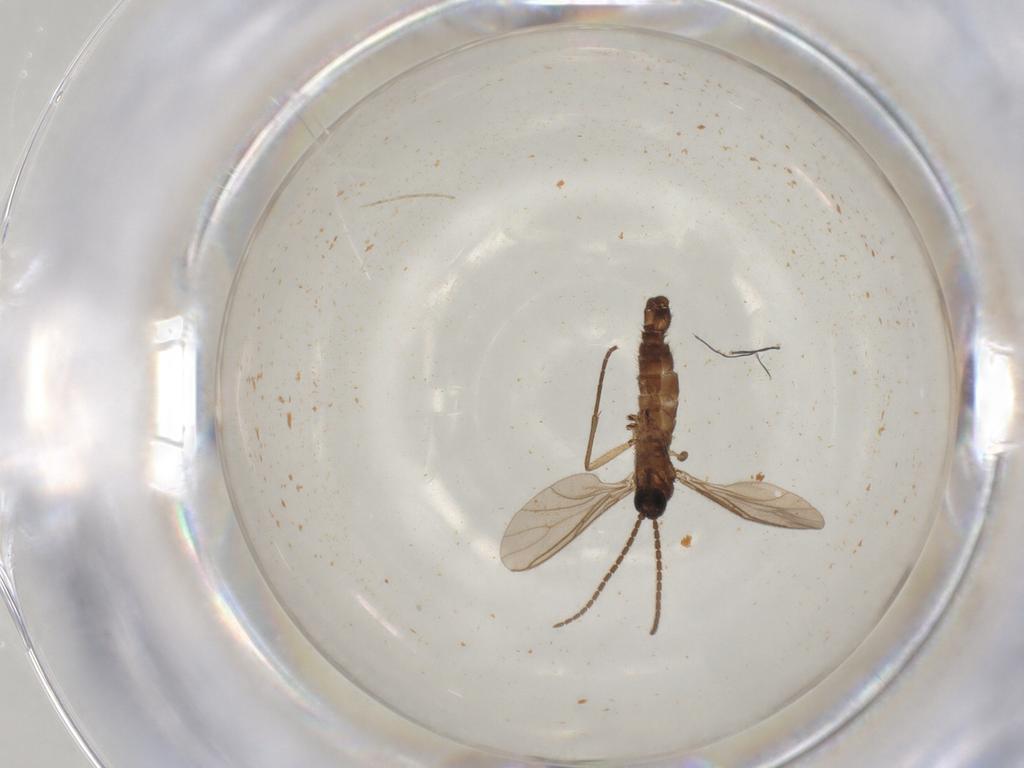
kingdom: Animalia
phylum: Arthropoda
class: Insecta
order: Diptera
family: Sciaridae
